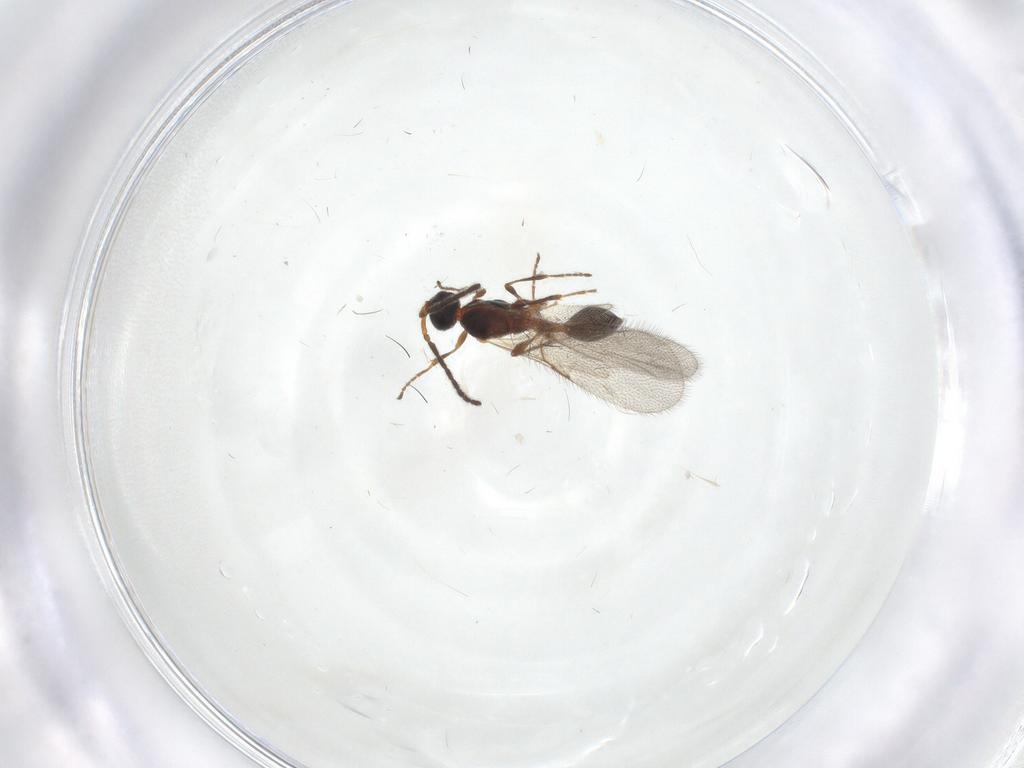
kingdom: Animalia
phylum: Arthropoda
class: Insecta
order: Hymenoptera
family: Diapriidae
